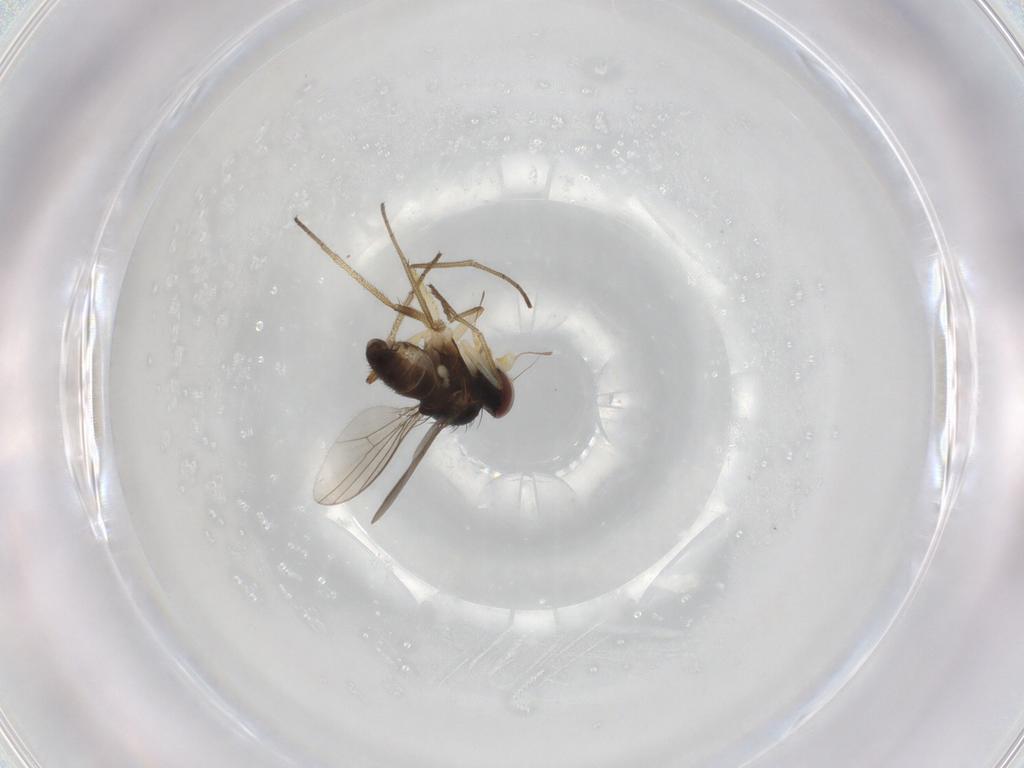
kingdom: Animalia
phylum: Arthropoda
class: Insecta
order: Diptera
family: Dolichopodidae
